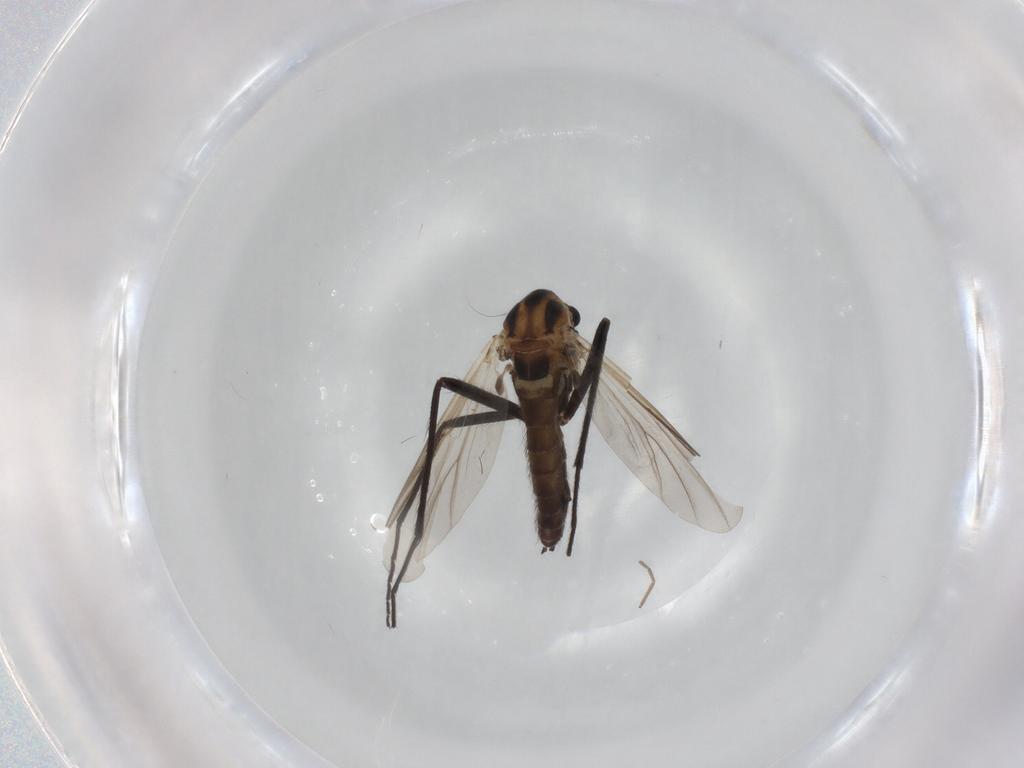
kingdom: Animalia
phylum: Arthropoda
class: Insecta
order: Diptera
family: Chironomidae
